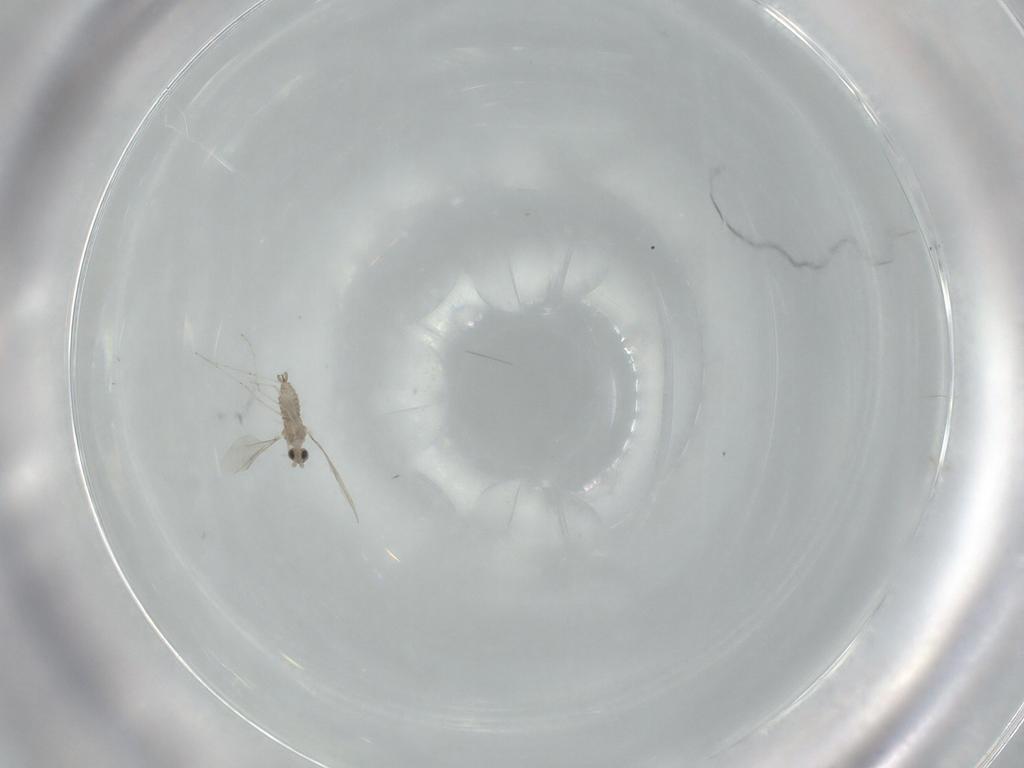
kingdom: Animalia
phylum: Arthropoda
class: Insecta
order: Diptera
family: Cecidomyiidae
